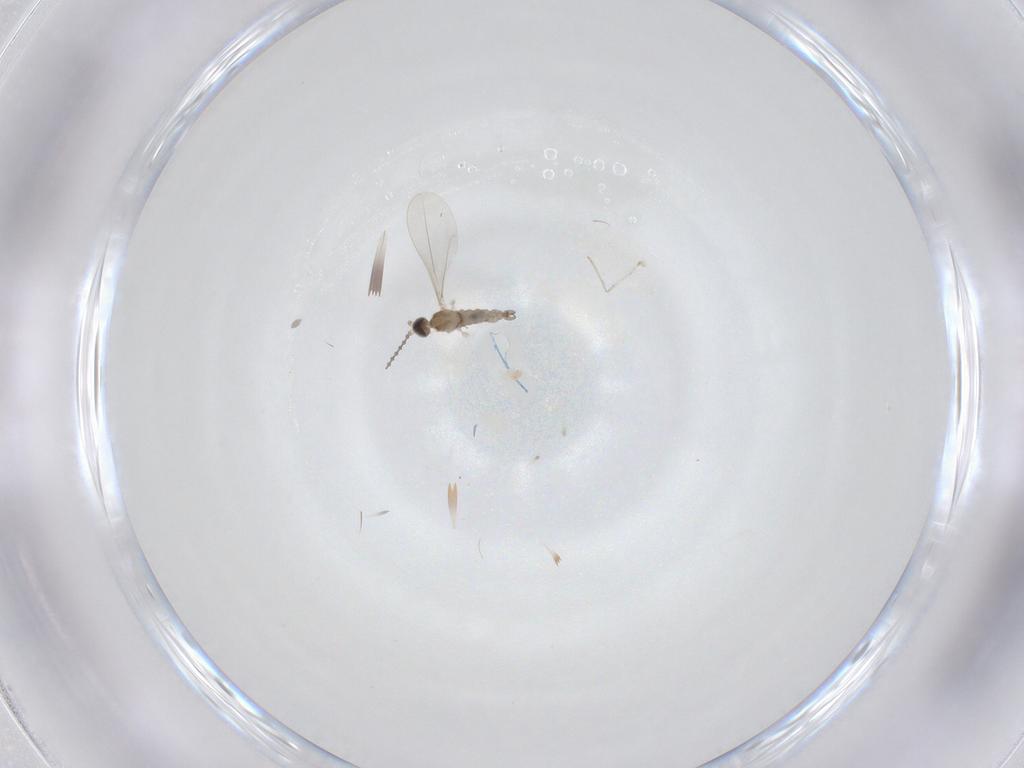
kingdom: Animalia
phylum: Arthropoda
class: Insecta
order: Diptera
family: Cecidomyiidae
